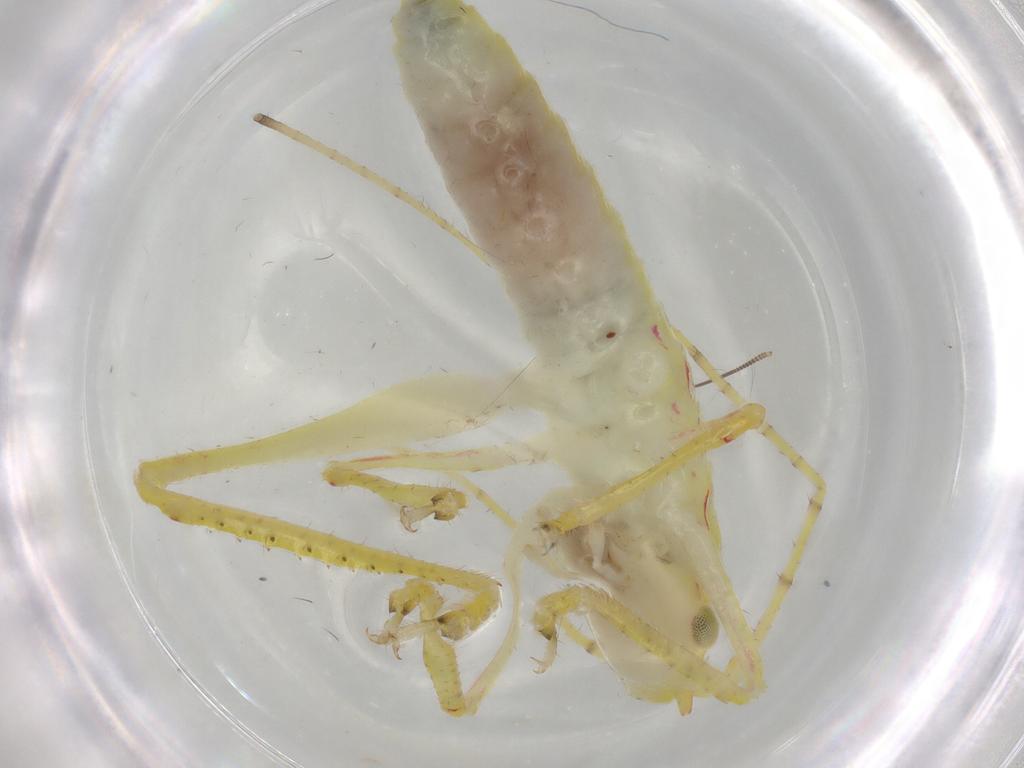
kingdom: Animalia
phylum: Arthropoda
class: Insecta
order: Orthoptera
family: Mogoplistidae
